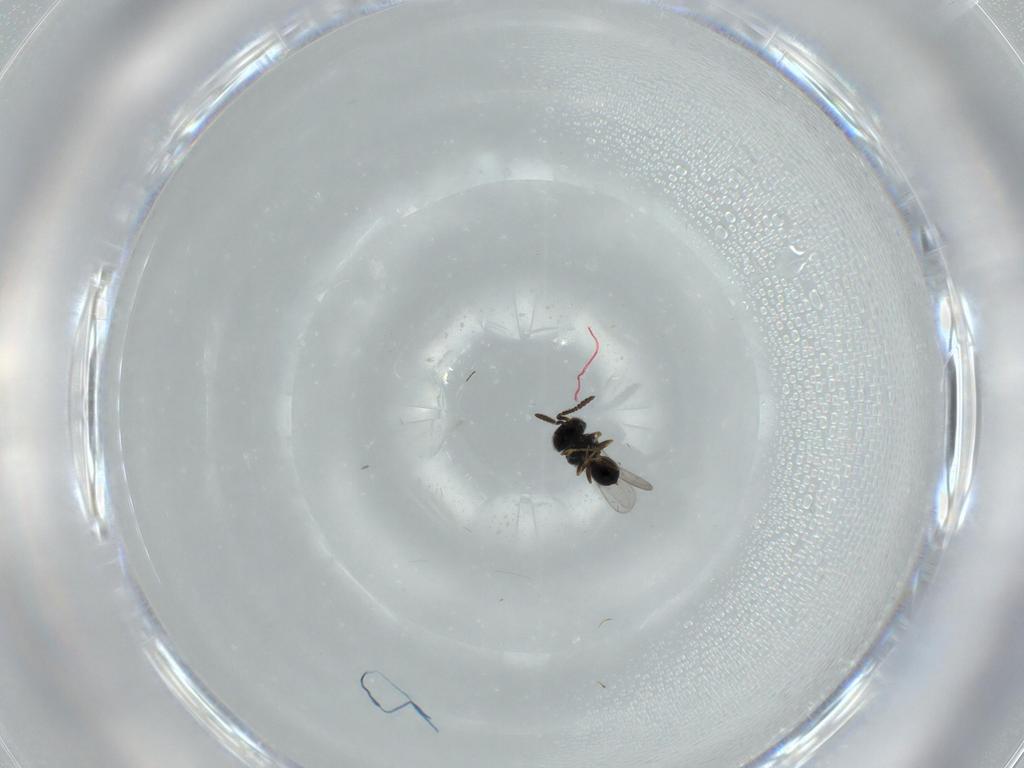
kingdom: Animalia
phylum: Arthropoda
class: Insecta
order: Hymenoptera
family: Scelionidae
